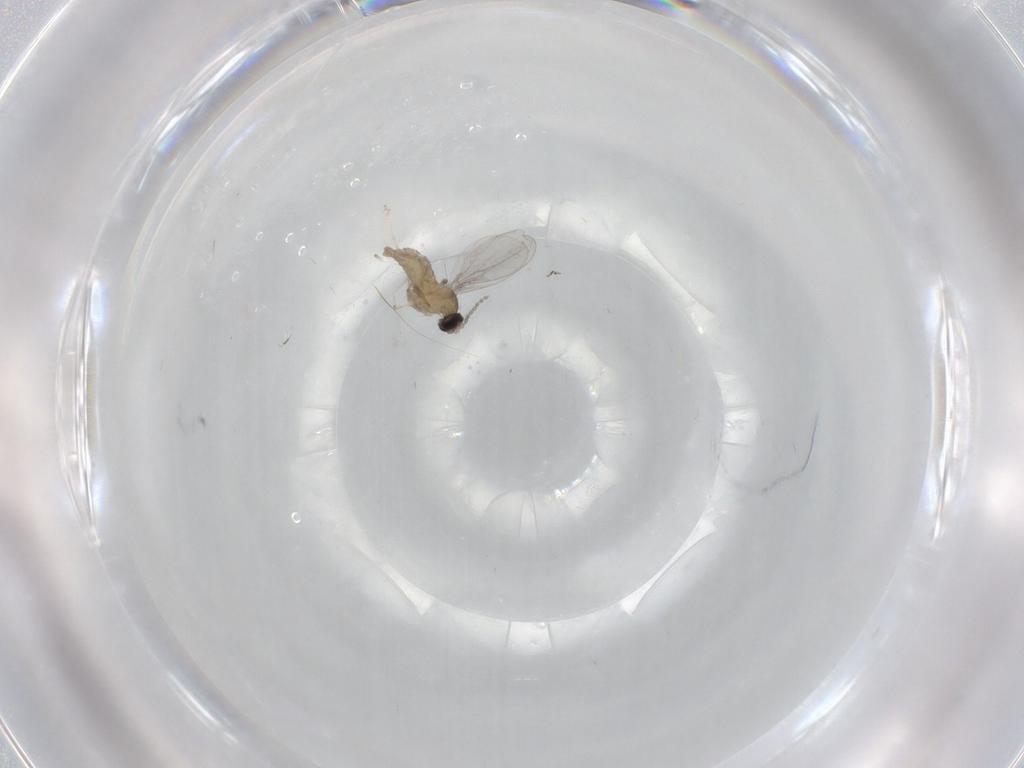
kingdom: Animalia
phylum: Arthropoda
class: Insecta
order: Diptera
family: Cecidomyiidae
